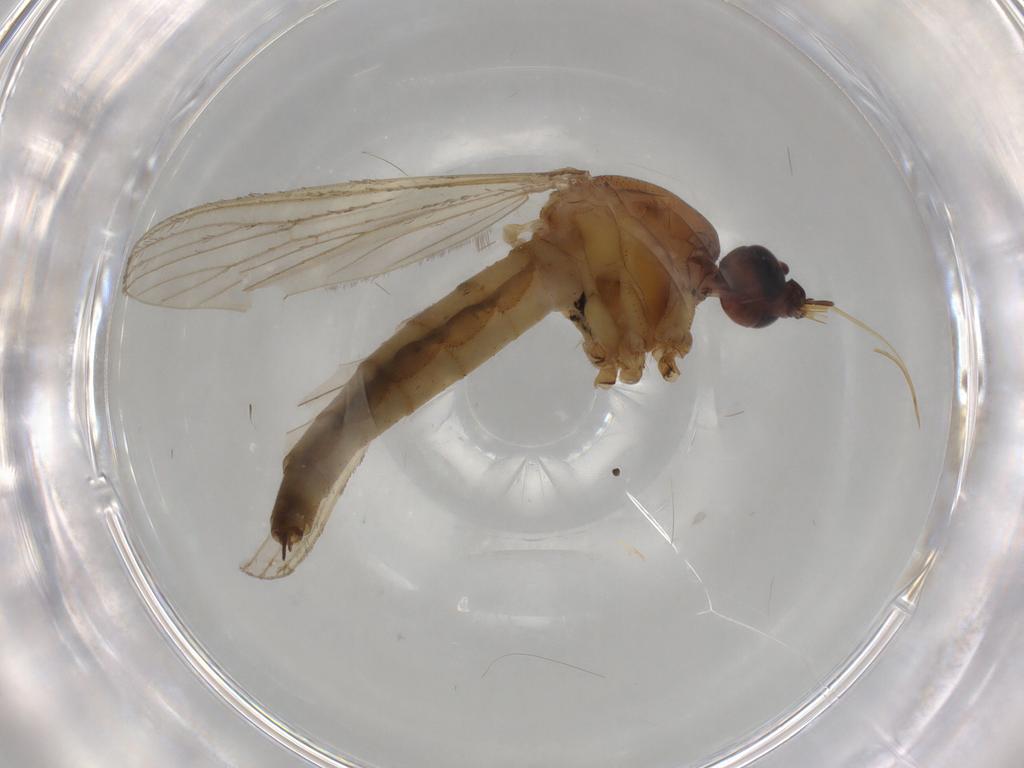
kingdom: Animalia
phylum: Arthropoda
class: Insecta
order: Diptera
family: Culicidae
